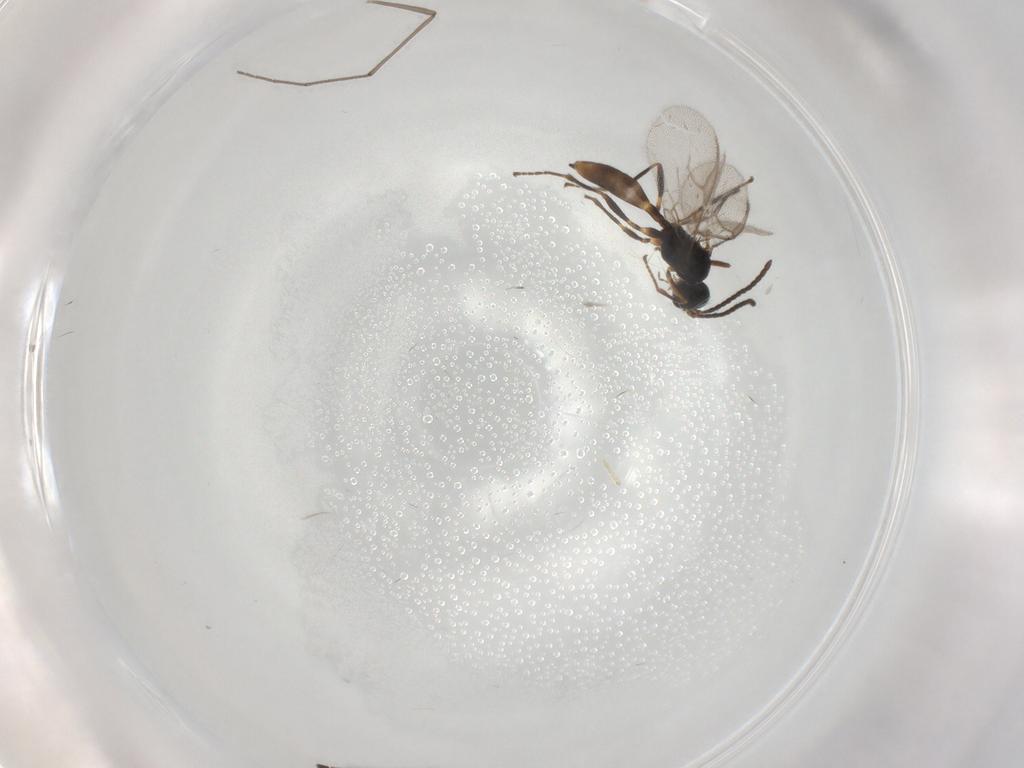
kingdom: Animalia
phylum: Arthropoda
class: Insecta
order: Hymenoptera
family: Braconidae
